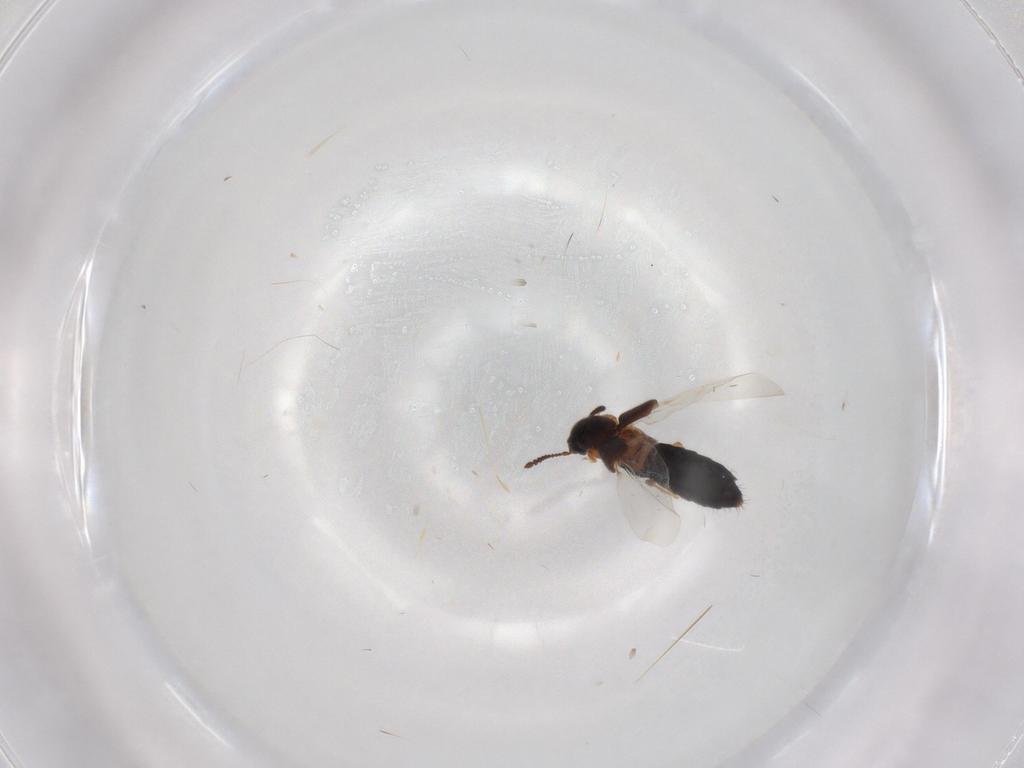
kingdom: Animalia
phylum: Arthropoda
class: Insecta
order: Coleoptera
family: Staphylinidae
